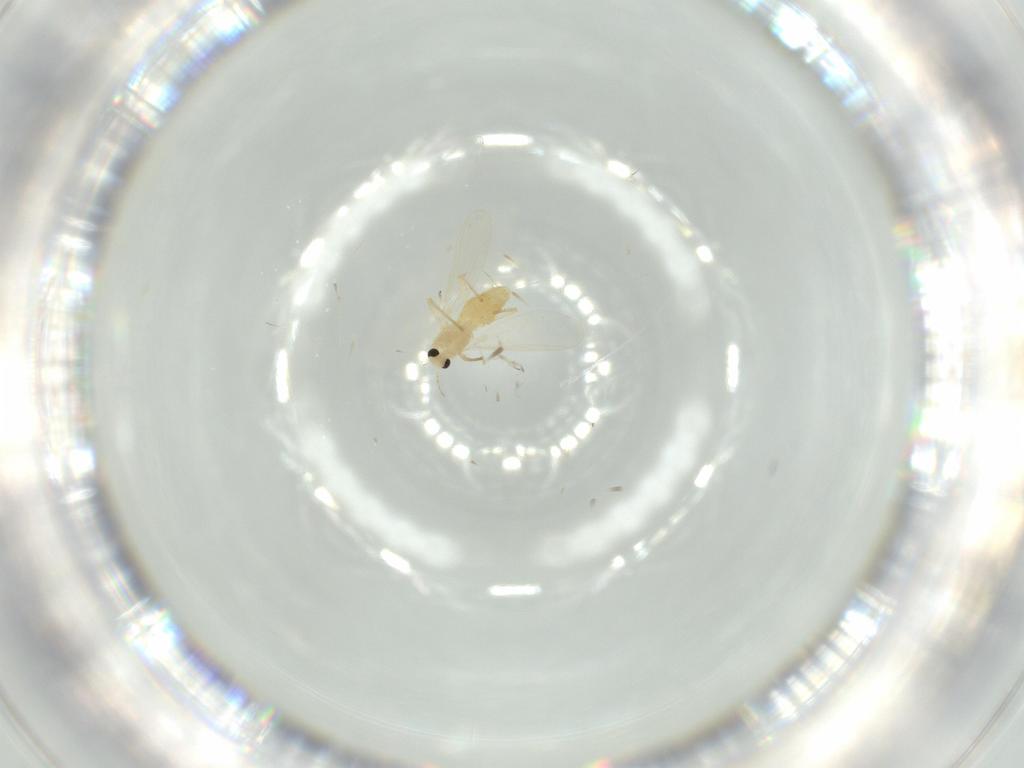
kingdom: Animalia
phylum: Arthropoda
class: Insecta
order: Diptera
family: Chironomidae
